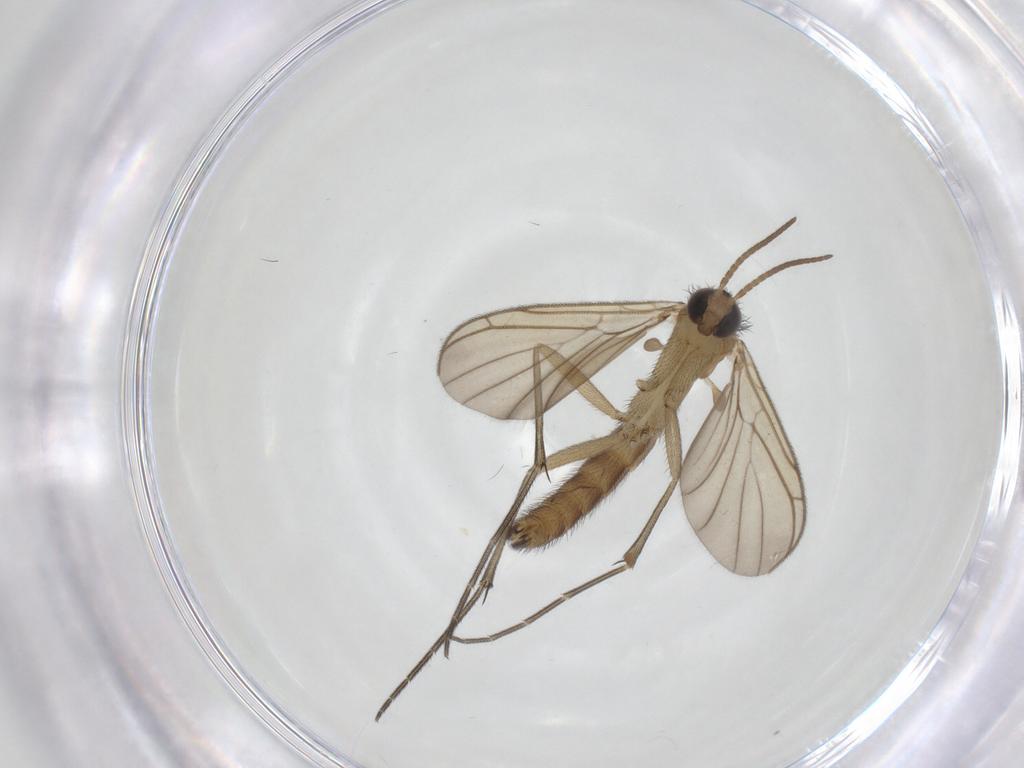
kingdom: Animalia
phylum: Arthropoda
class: Insecta
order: Diptera
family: Keroplatidae
